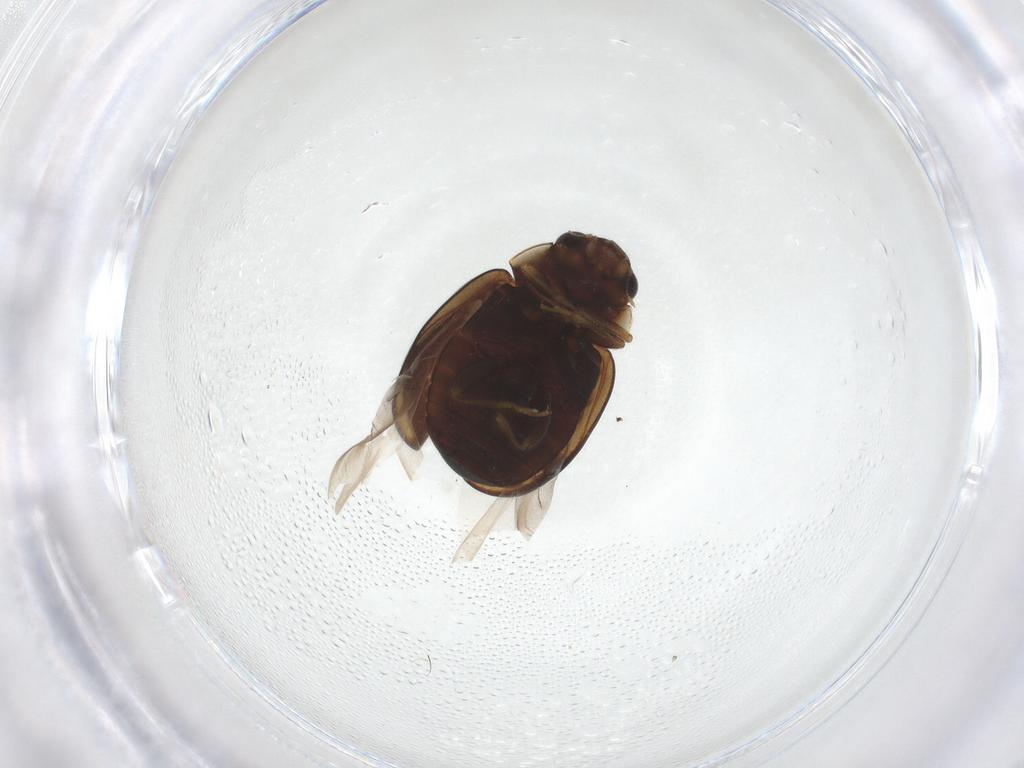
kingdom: Animalia
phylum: Arthropoda
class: Insecta
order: Coleoptera
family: Coccinellidae
